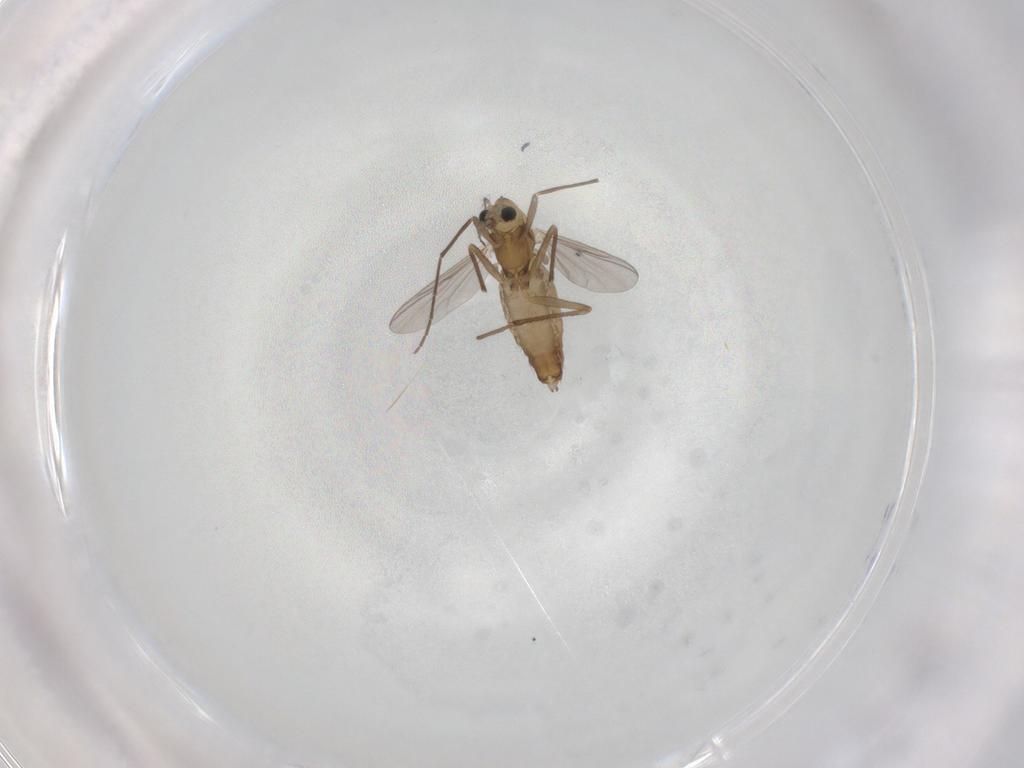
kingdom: Animalia
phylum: Arthropoda
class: Insecta
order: Diptera
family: Chironomidae
